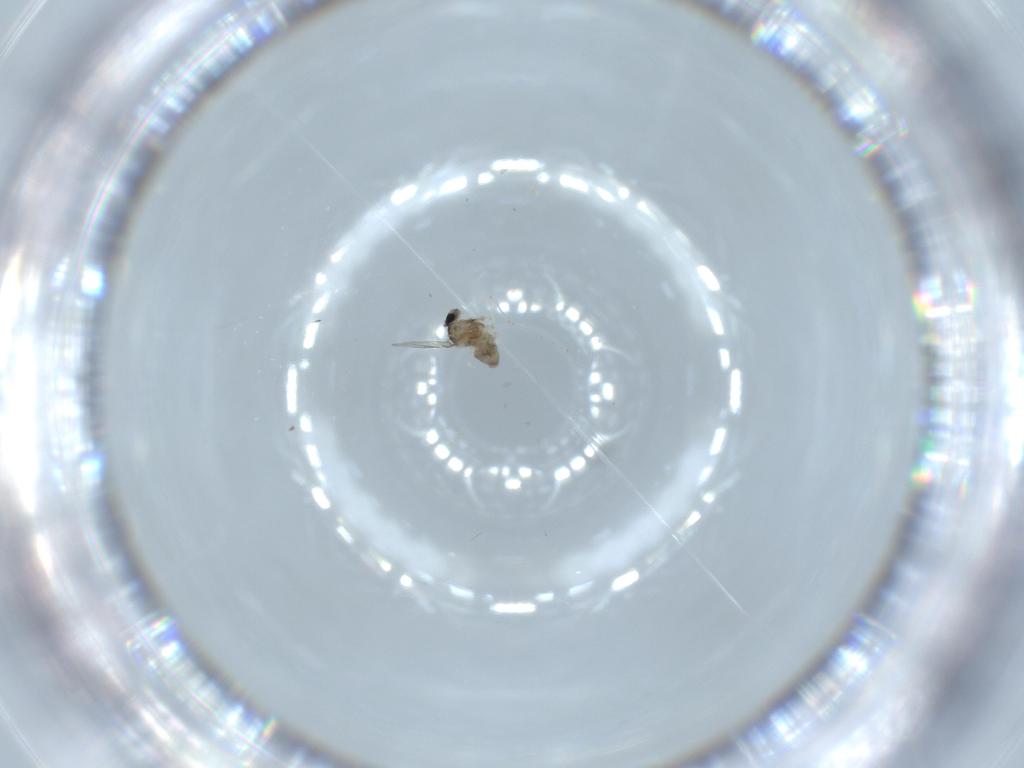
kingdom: Animalia
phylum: Arthropoda
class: Insecta
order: Diptera
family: Cecidomyiidae
